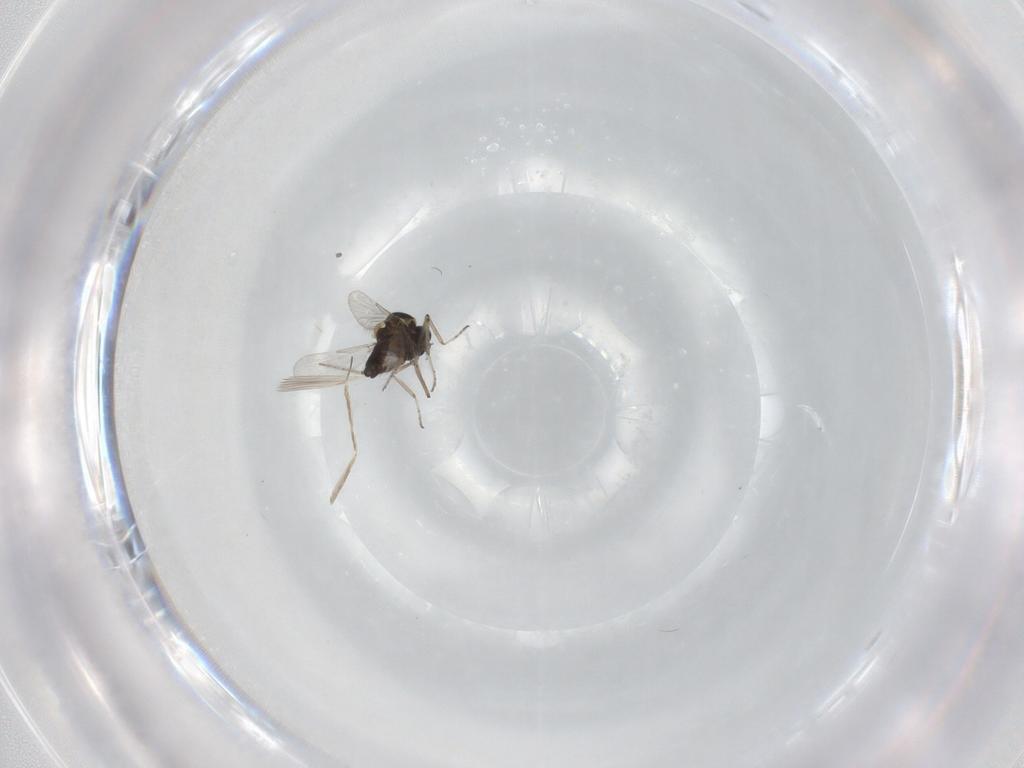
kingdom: Animalia
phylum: Arthropoda
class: Insecta
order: Diptera
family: Ceratopogonidae
